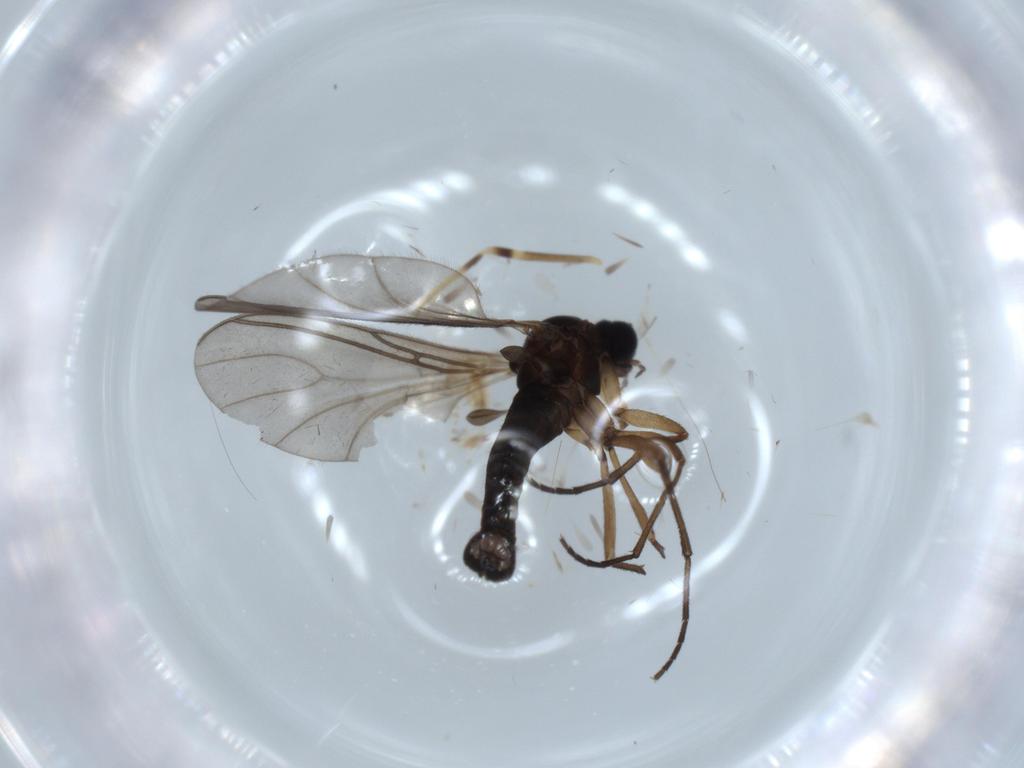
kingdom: Animalia
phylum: Arthropoda
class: Insecta
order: Diptera
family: Sciaridae
